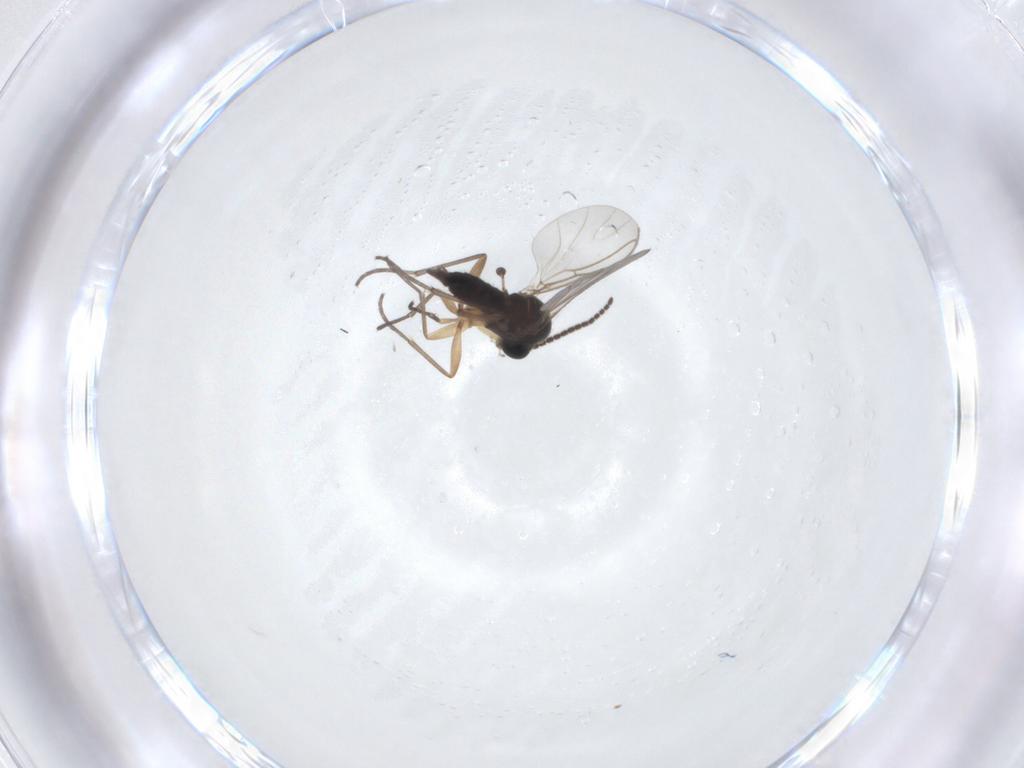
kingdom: Animalia
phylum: Arthropoda
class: Insecta
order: Diptera
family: Sciaridae
